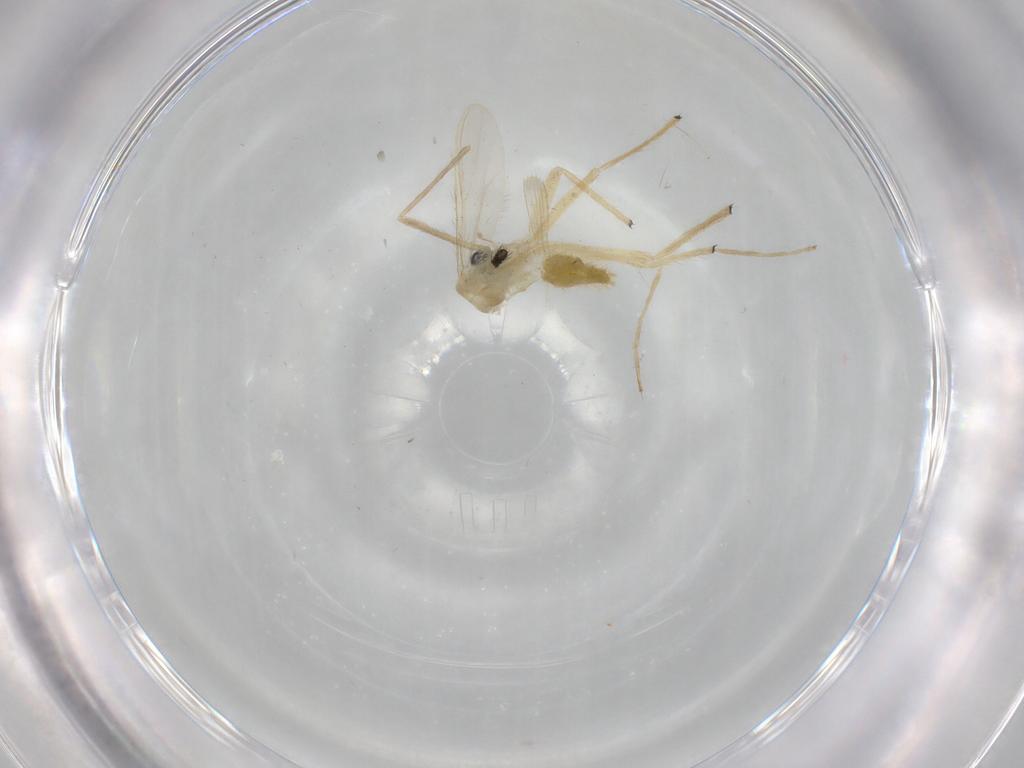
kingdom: Animalia
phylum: Arthropoda
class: Insecta
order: Diptera
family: Chironomidae
